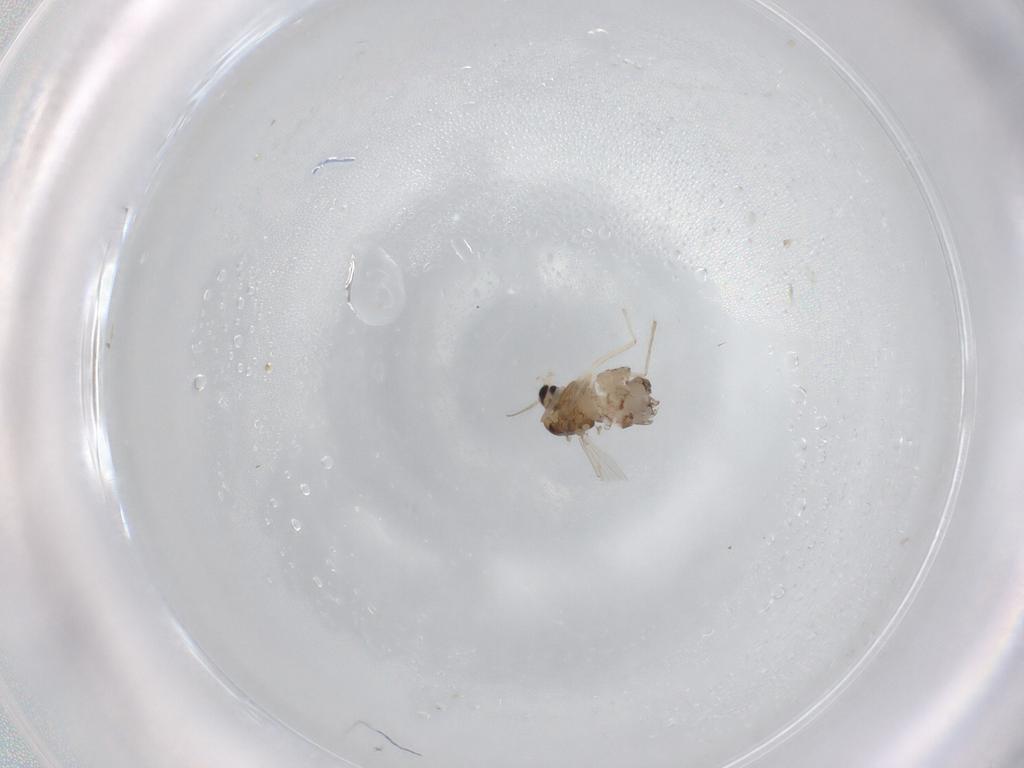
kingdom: Animalia
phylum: Arthropoda
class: Insecta
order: Diptera
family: Chironomidae
